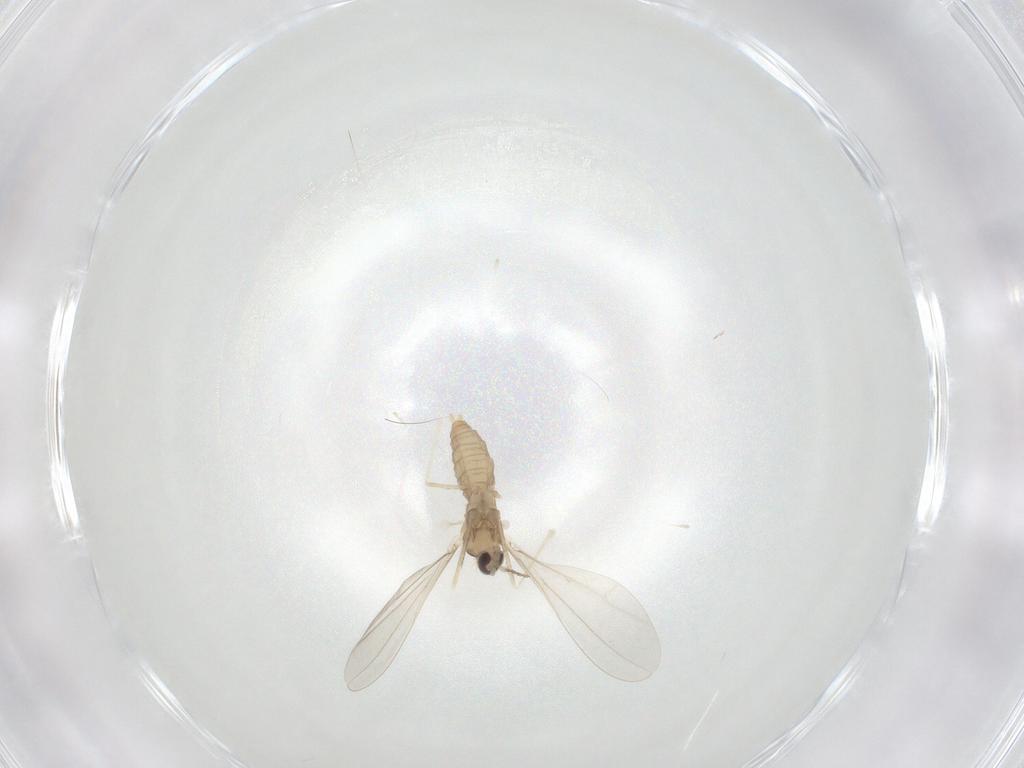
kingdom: Animalia
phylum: Arthropoda
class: Insecta
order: Diptera
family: Cecidomyiidae
